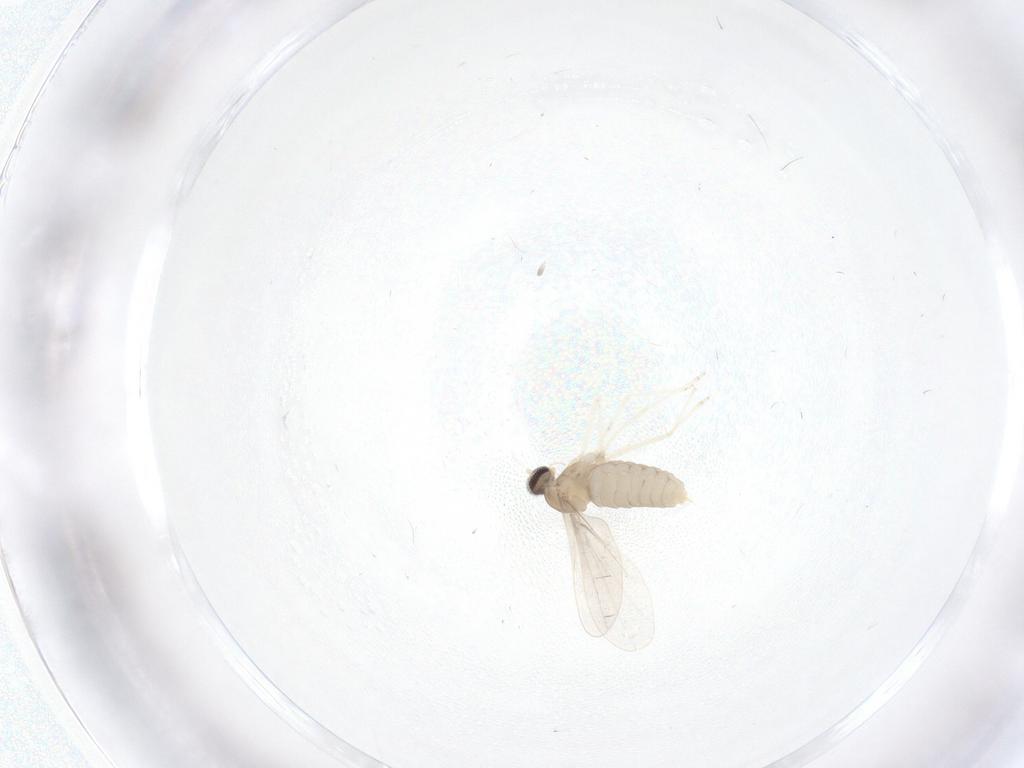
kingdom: Animalia
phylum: Arthropoda
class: Insecta
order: Diptera
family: Cecidomyiidae
